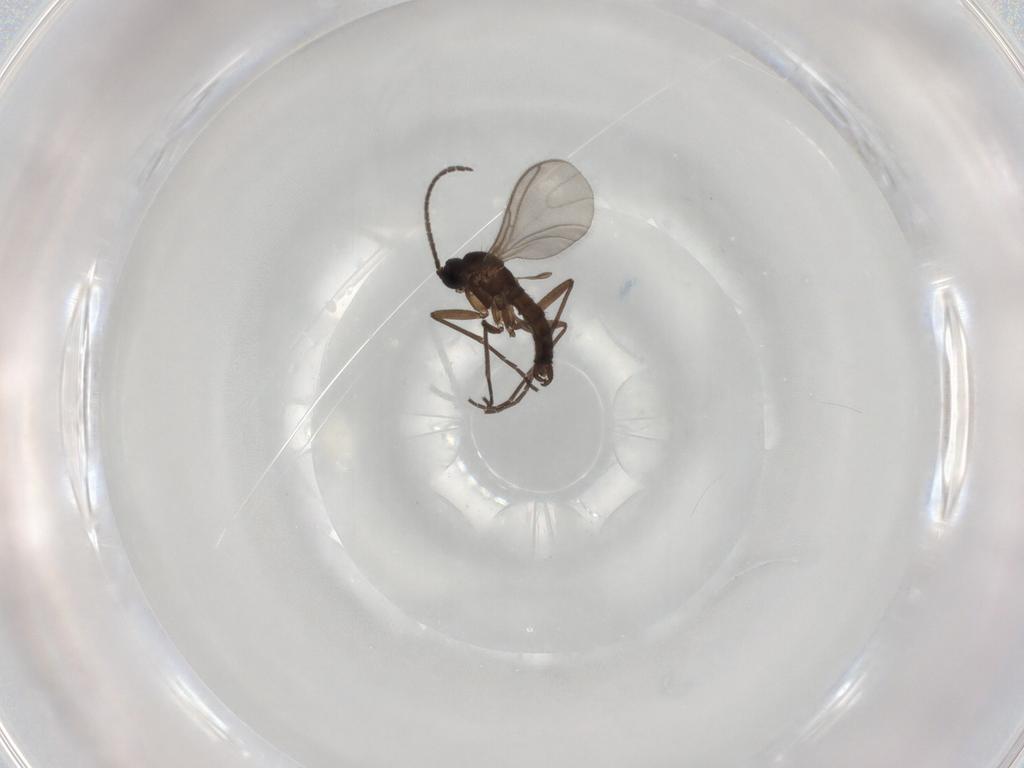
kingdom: Animalia
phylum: Arthropoda
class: Insecta
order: Diptera
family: Sciaridae
